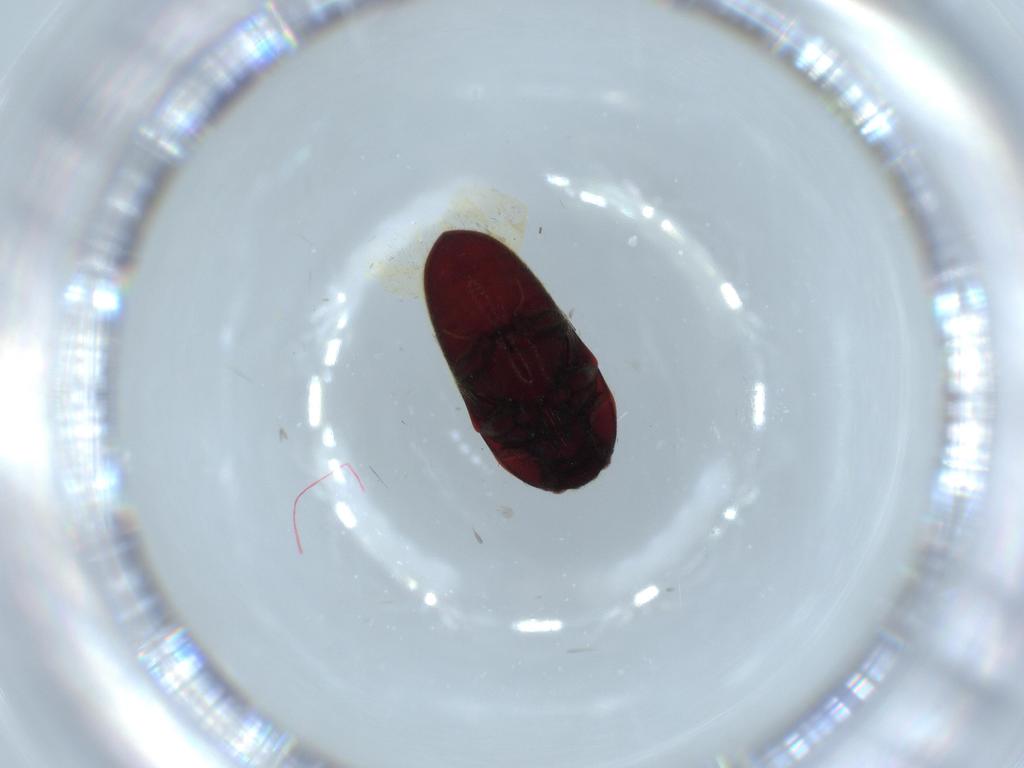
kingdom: Animalia
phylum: Arthropoda
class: Insecta
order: Coleoptera
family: Throscidae
